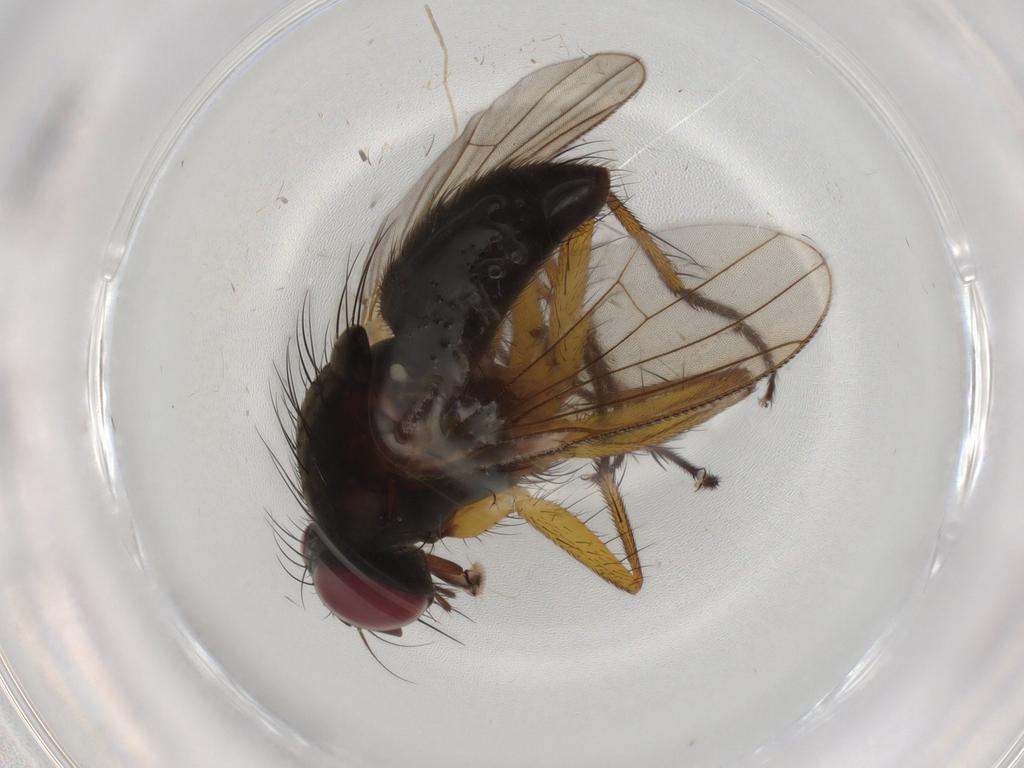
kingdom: Animalia
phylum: Arthropoda
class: Insecta
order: Diptera
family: Muscidae
